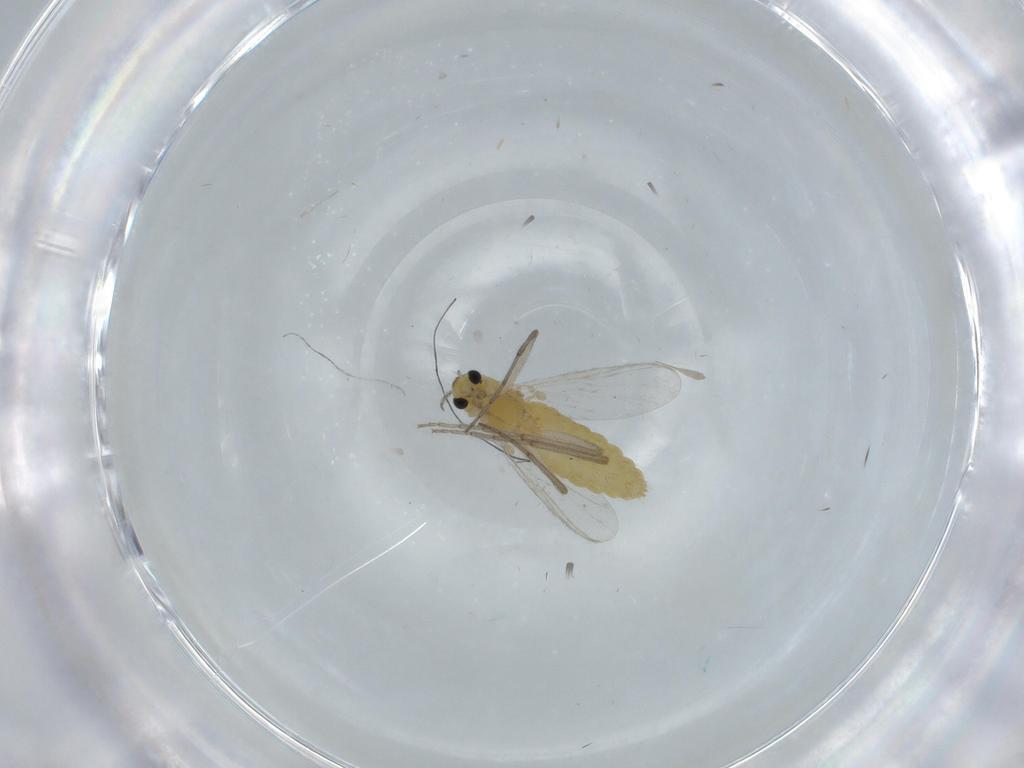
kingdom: Animalia
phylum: Arthropoda
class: Insecta
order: Diptera
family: Chironomidae
